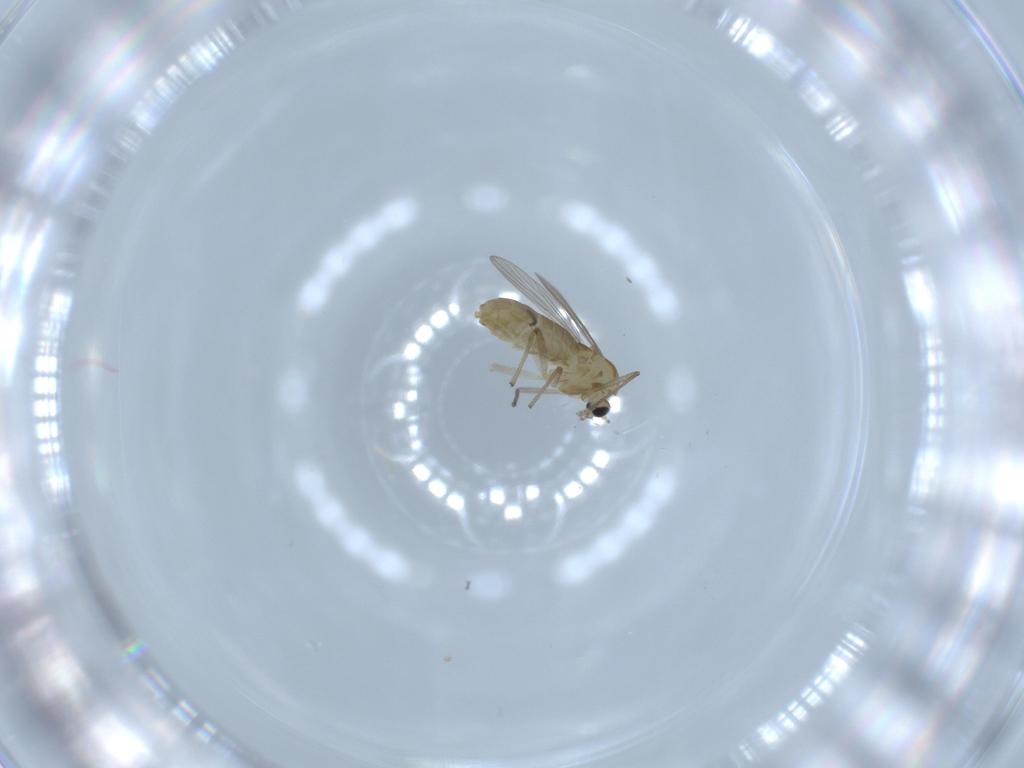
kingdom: Animalia
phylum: Arthropoda
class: Insecta
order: Diptera
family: Chironomidae
